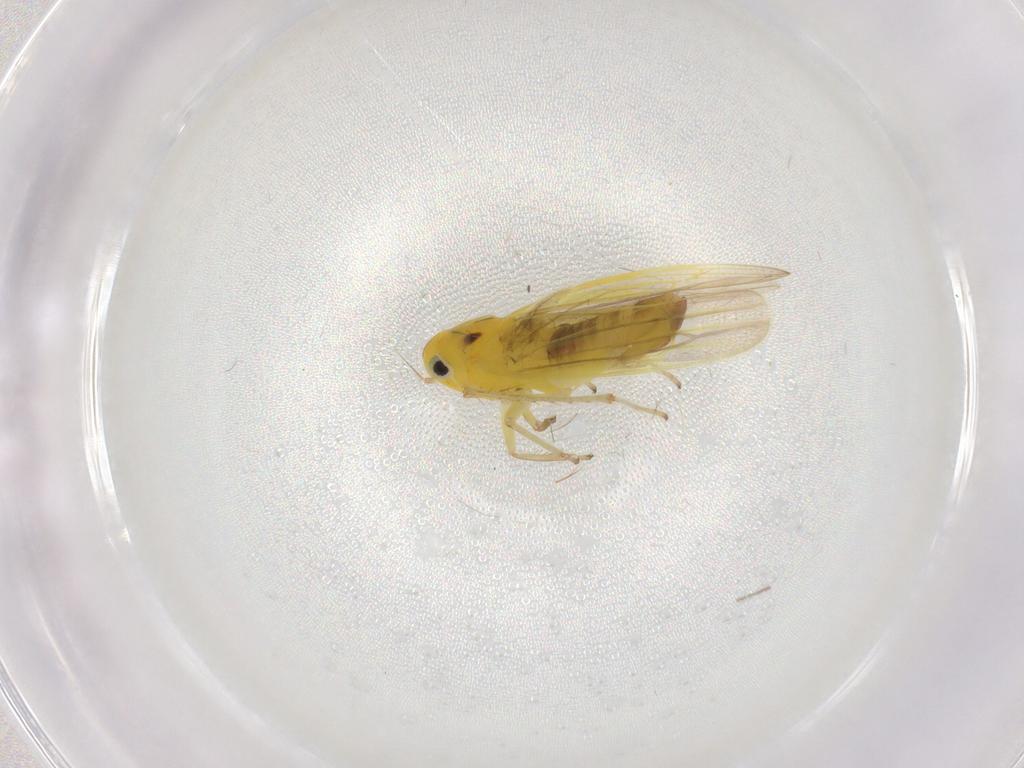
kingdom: Animalia
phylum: Arthropoda
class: Insecta
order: Hemiptera
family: Cicadellidae
